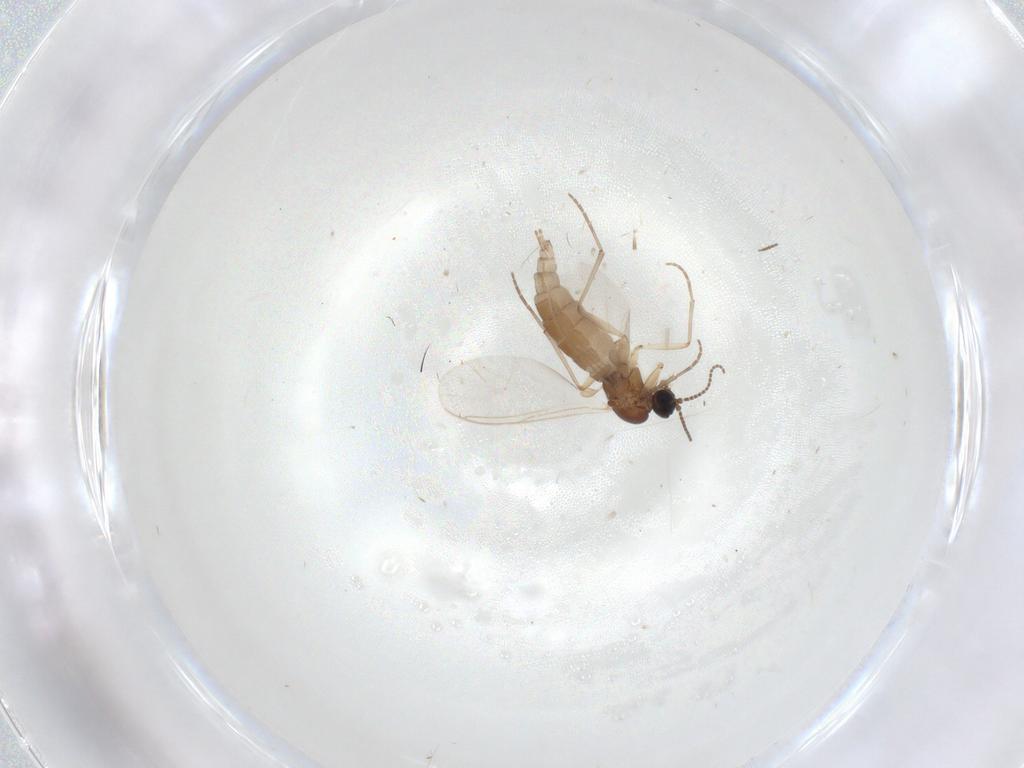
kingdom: Animalia
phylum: Arthropoda
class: Insecta
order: Diptera
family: Sciaridae
